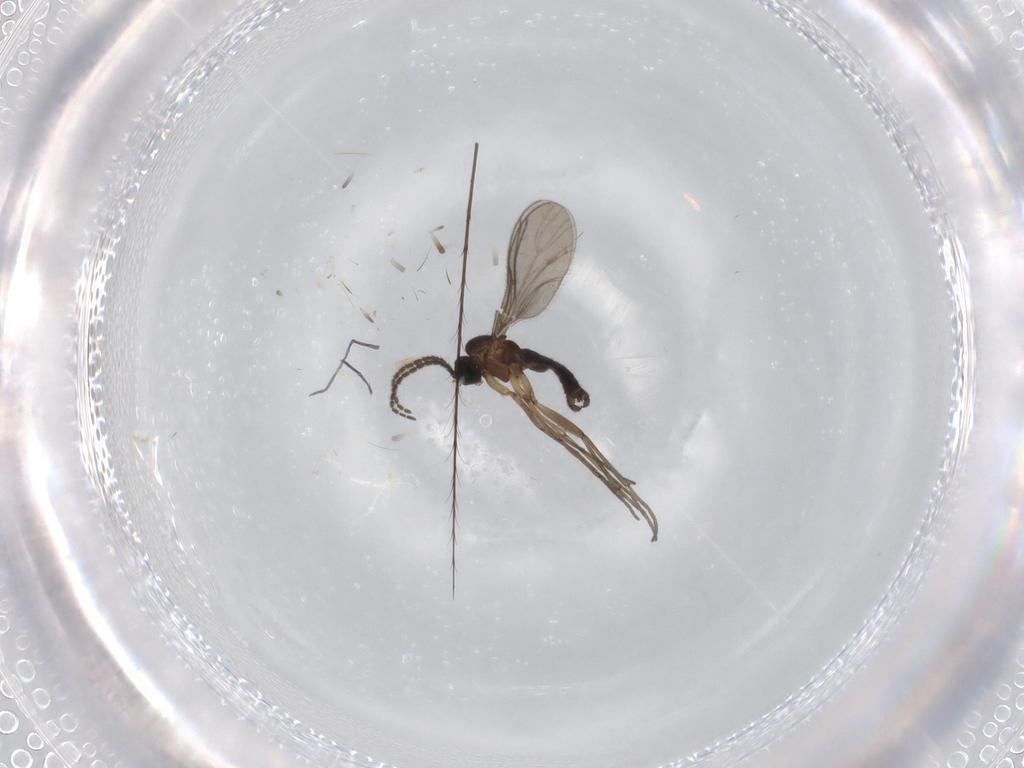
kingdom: Animalia
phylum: Arthropoda
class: Insecta
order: Diptera
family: Sciaridae
